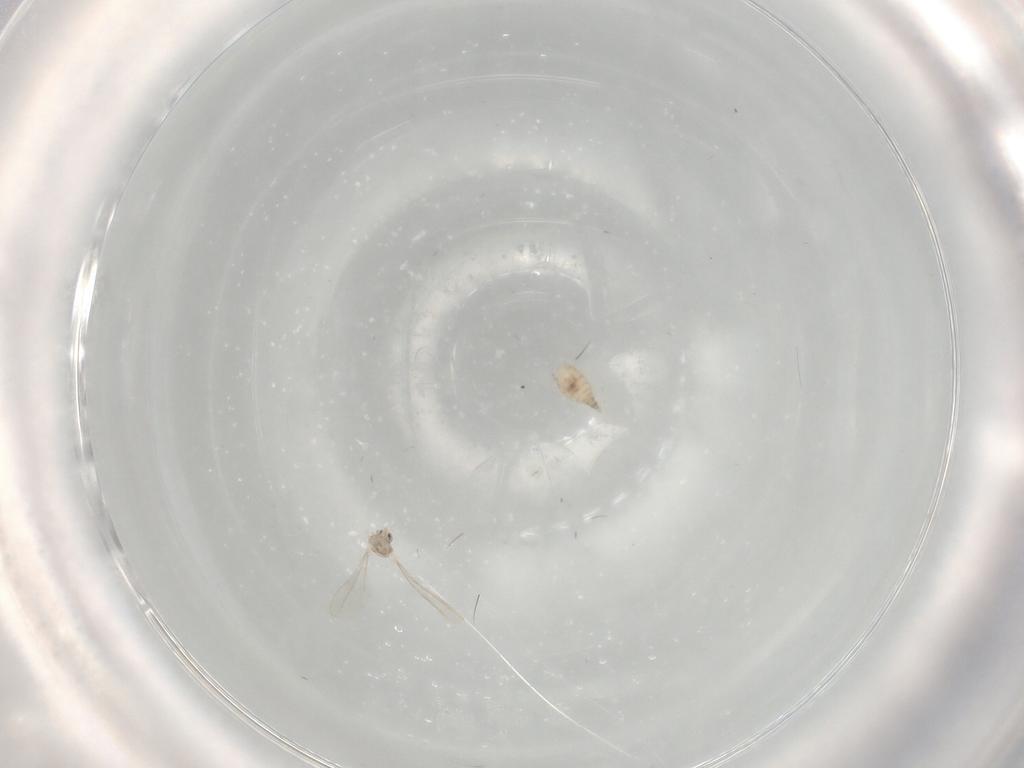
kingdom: Animalia
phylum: Arthropoda
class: Insecta
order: Diptera
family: Cecidomyiidae
